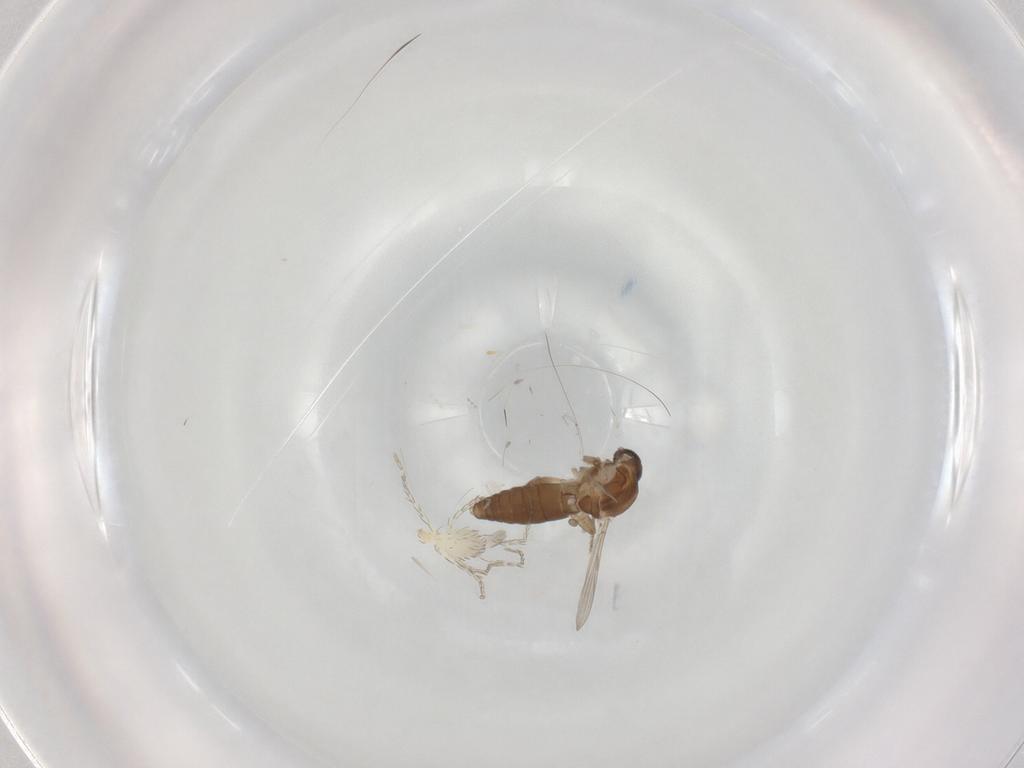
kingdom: Animalia
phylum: Arthropoda
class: Insecta
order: Diptera
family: Ceratopogonidae
